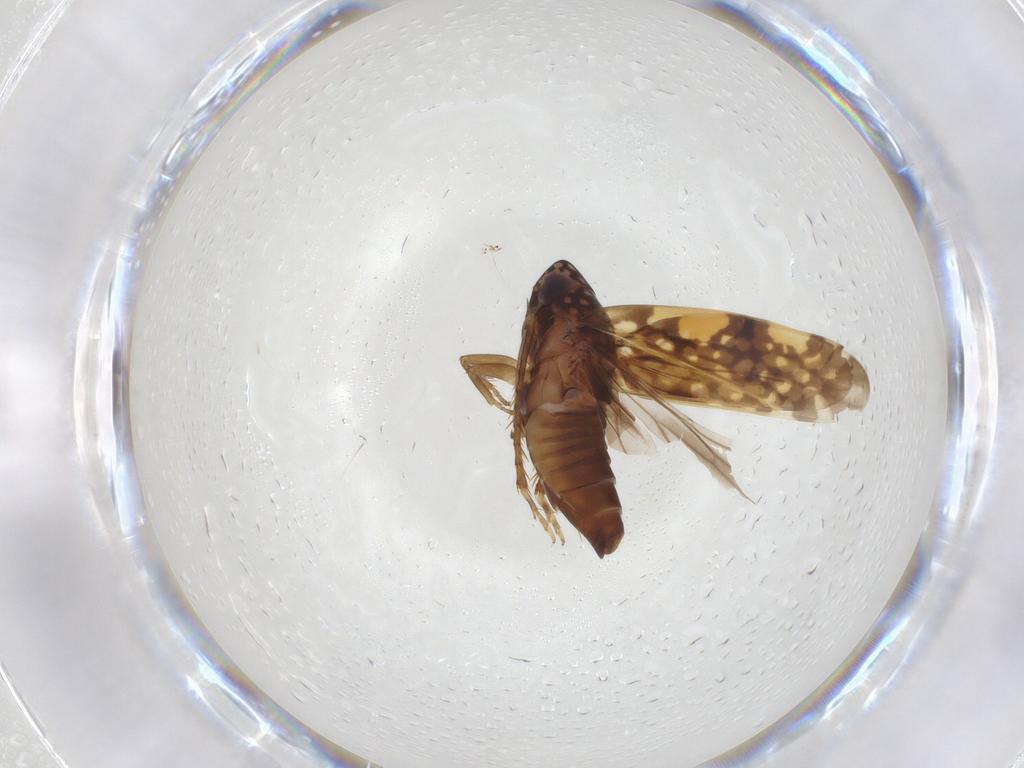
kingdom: Animalia
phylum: Arthropoda
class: Insecta
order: Hemiptera
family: Cicadellidae
